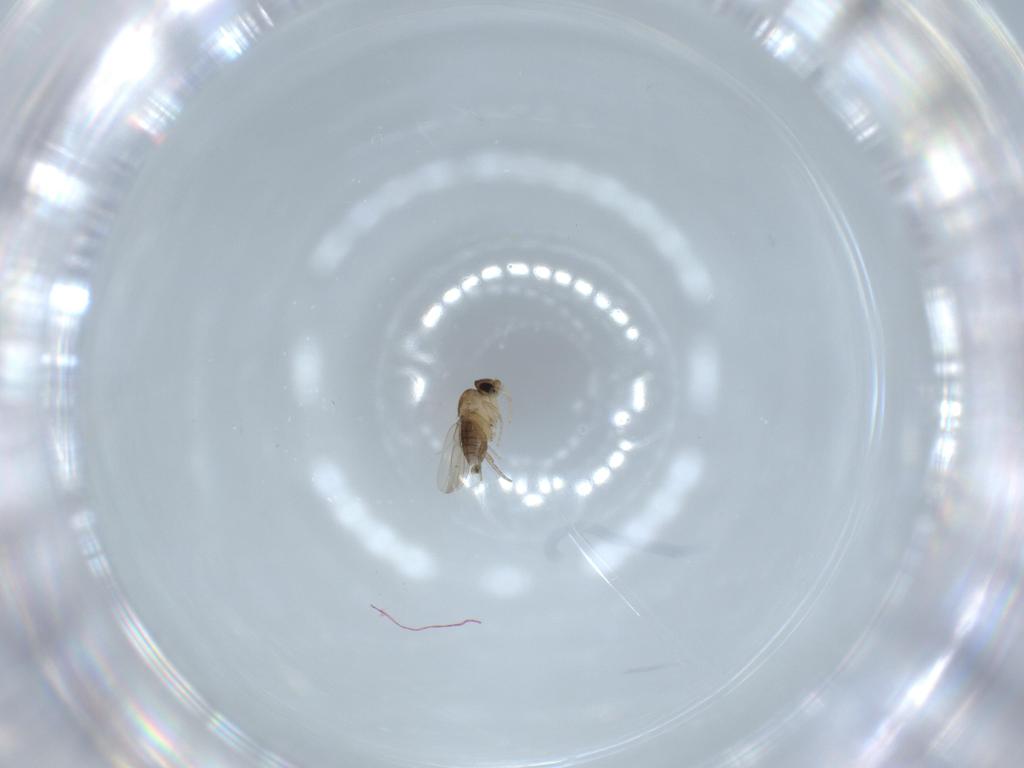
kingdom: Animalia
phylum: Arthropoda
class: Insecta
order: Diptera
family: Phoridae
